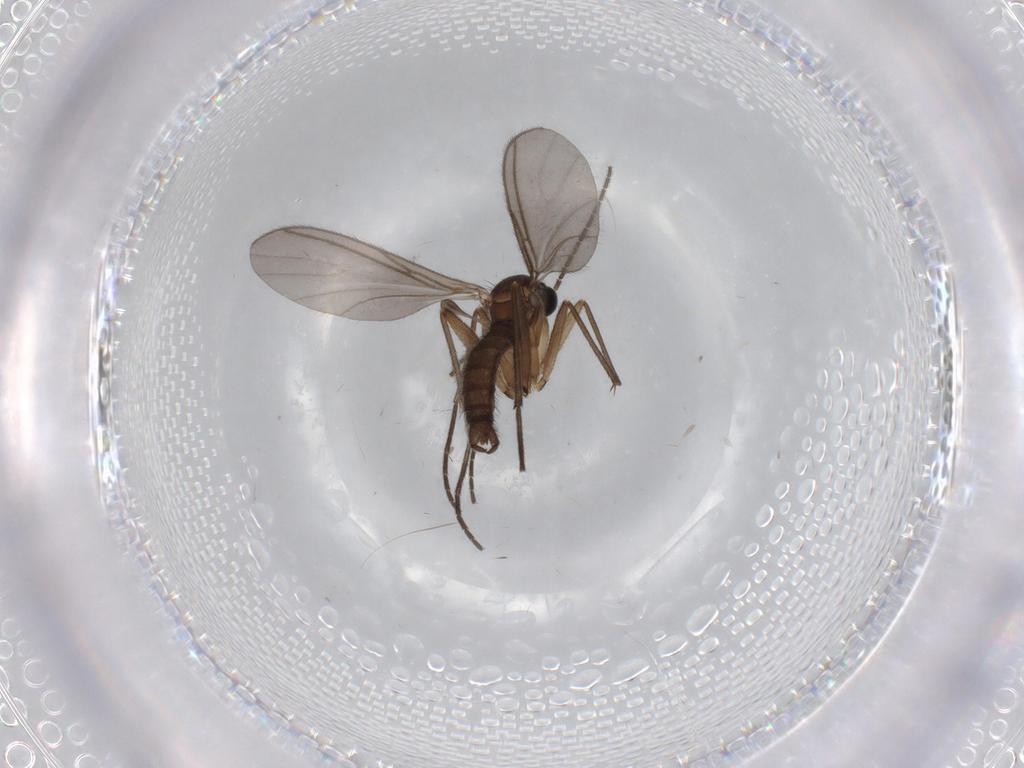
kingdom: Animalia
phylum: Arthropoda
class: Insecta
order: Diptera
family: Sciaridae
